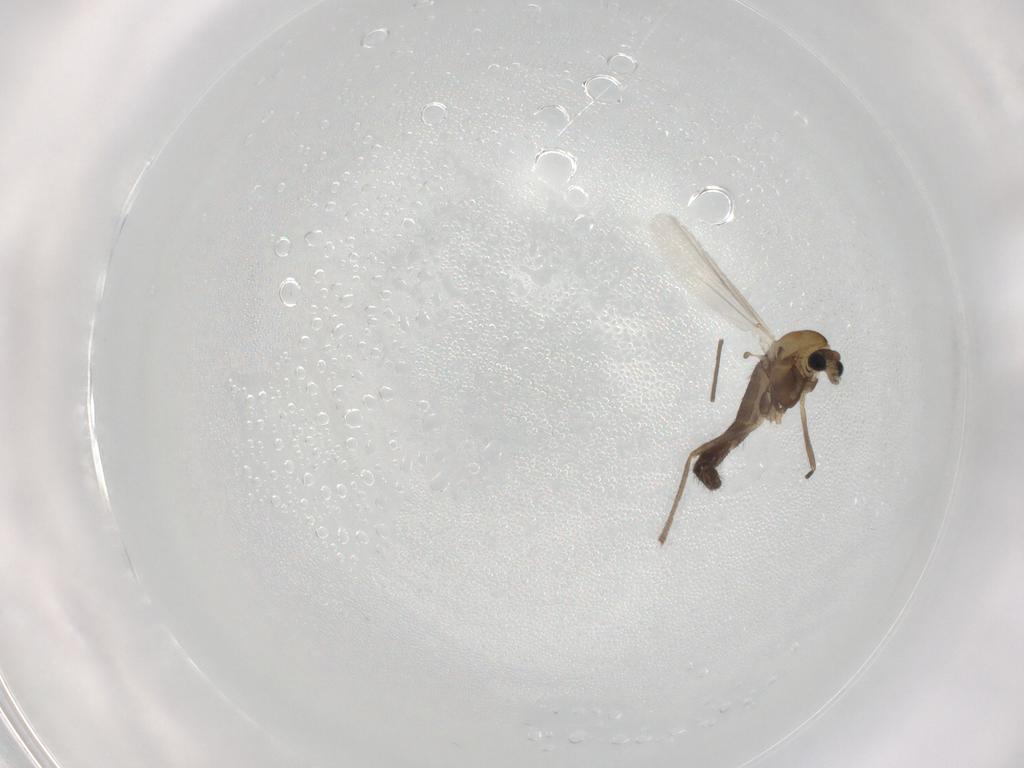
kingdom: Animalia
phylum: Arthropoda
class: Insecta
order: Diptera
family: Chironomidae
